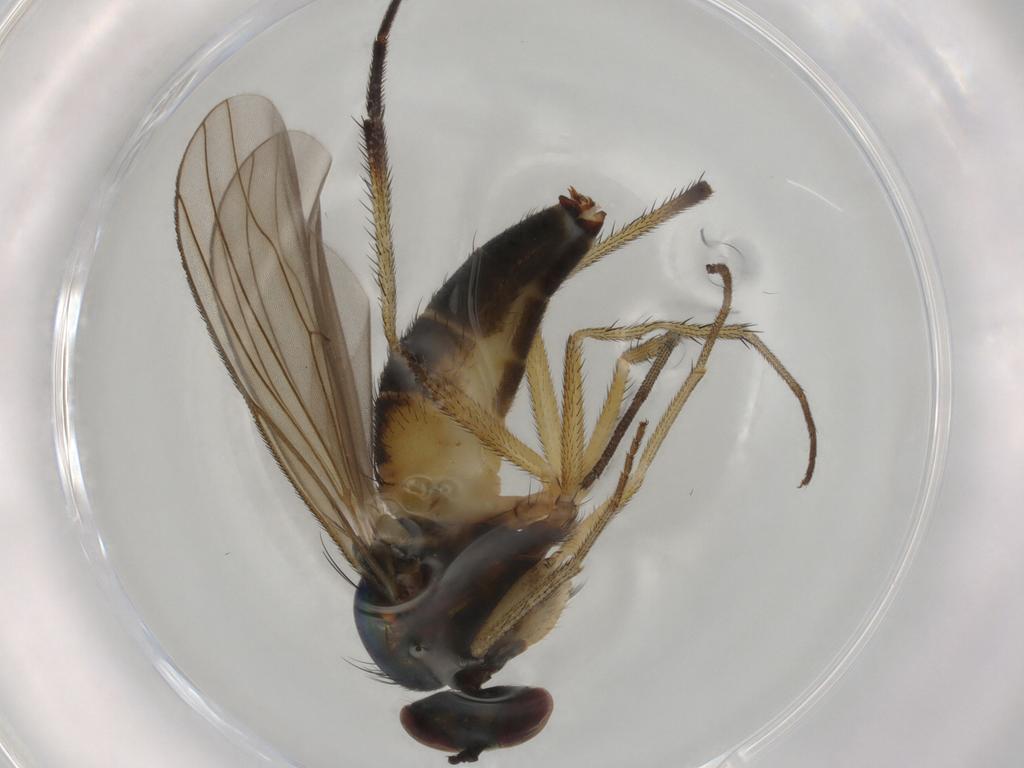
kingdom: Animalia
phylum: Arthropoda
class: Insecta
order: Diptera
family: Dolichopodidae
